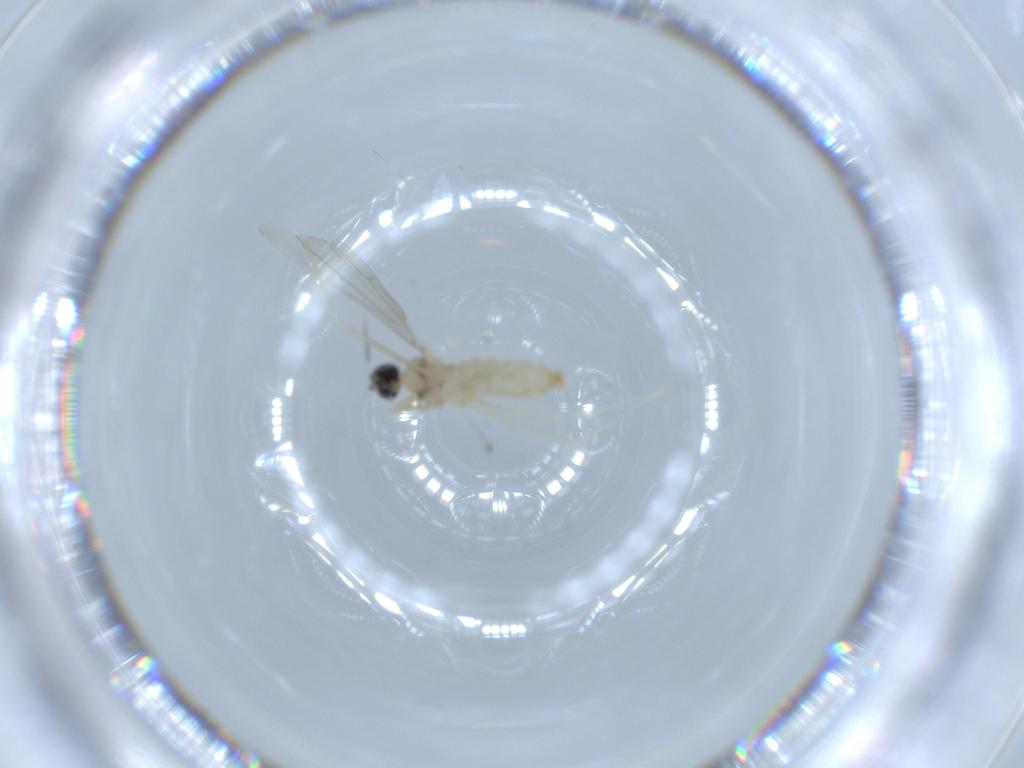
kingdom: Animalia
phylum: Arthropoda
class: Insecta
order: Diptera
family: Cecidomyiidae
